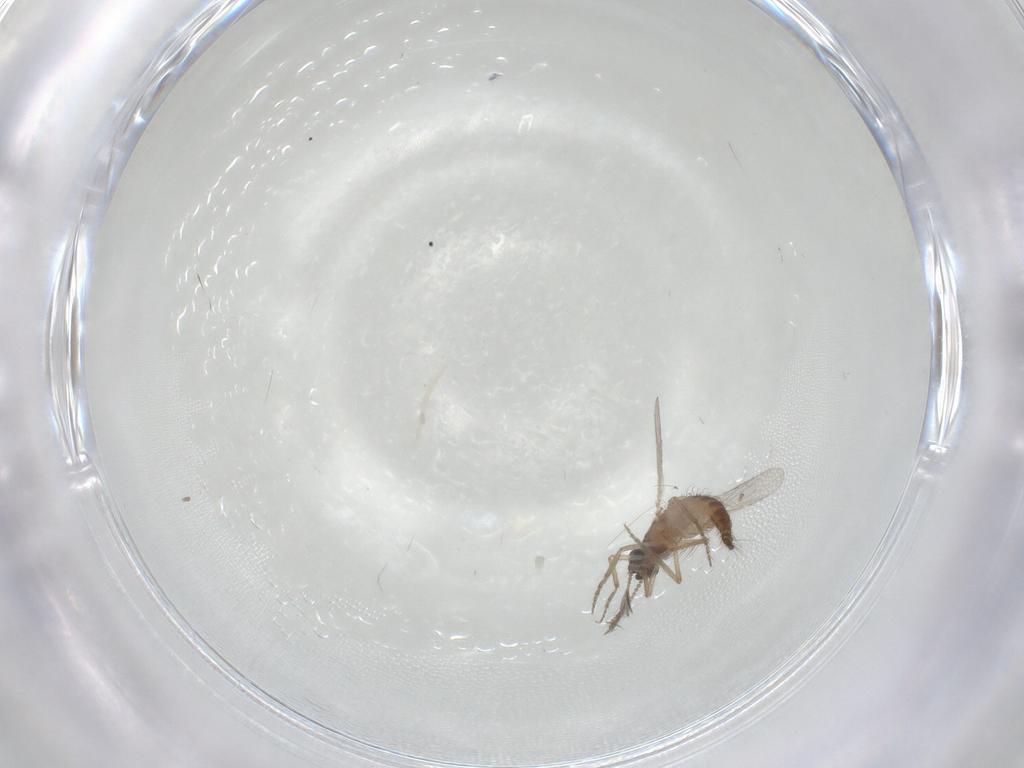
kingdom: Animalia
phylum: Arthropoda
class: Insecta
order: Diptera
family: Ceratopogonidae
